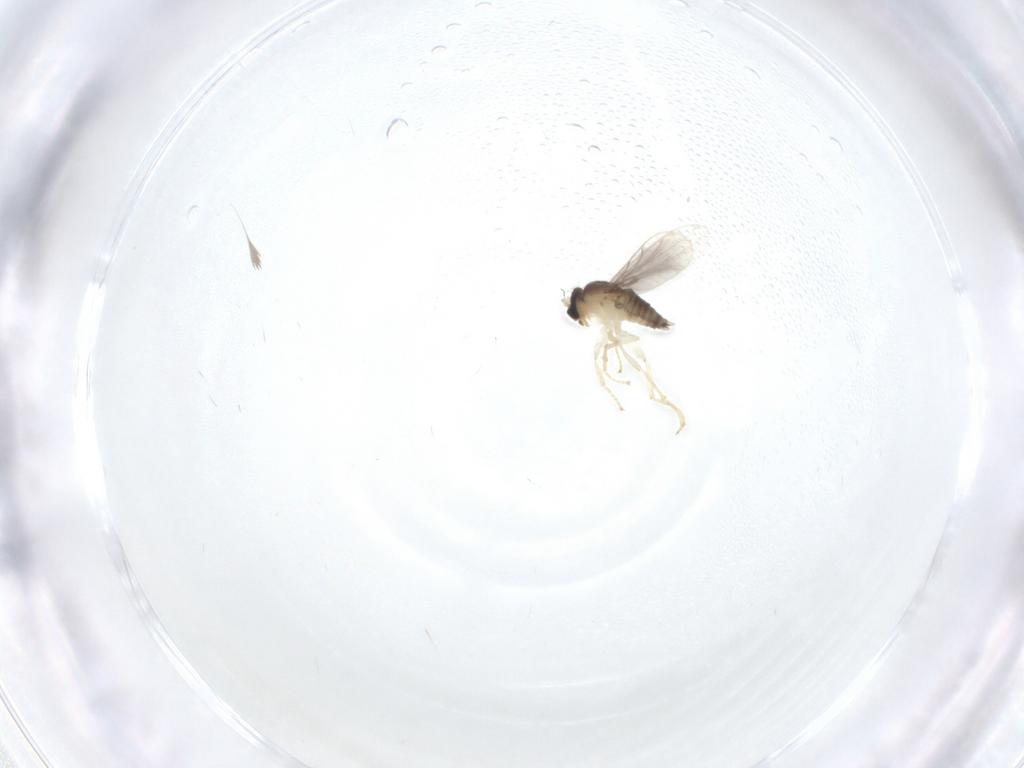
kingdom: Animalia
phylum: Arthropoda
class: Insecta
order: Diptera
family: Hybotidae
